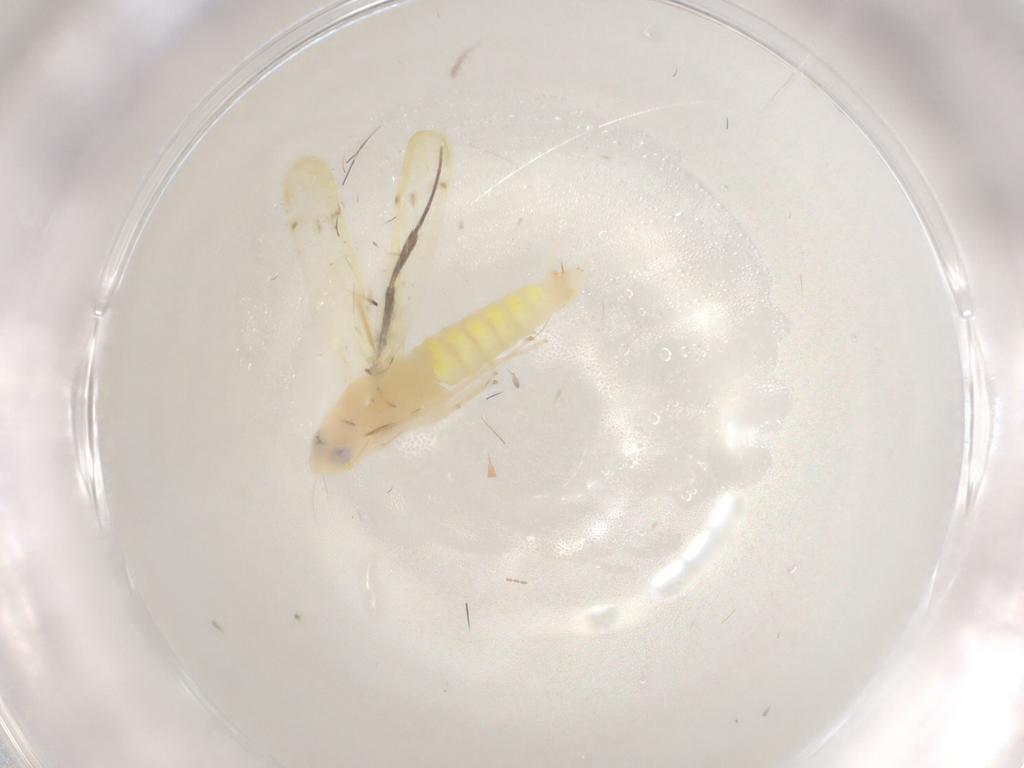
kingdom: Animalia
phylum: Arthropoda
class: Insecta
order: Hemiptera
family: Cicadellidae
